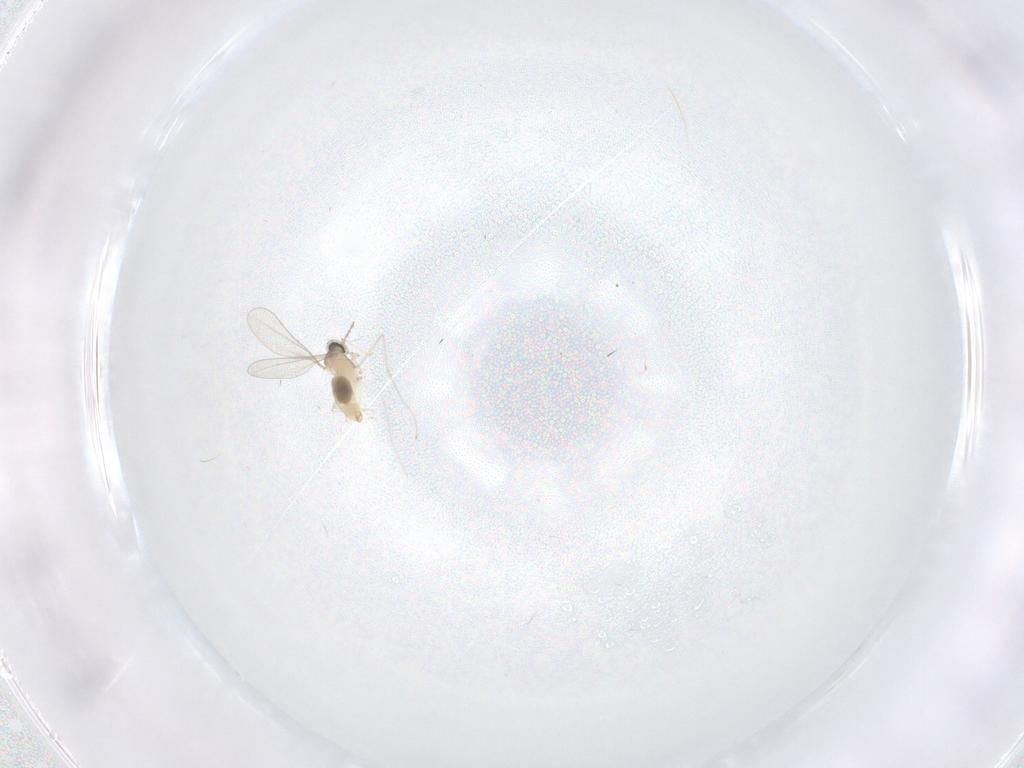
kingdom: Animalia
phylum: Arthropoda
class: Insecta
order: Diptera
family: Cecidomyiidae
